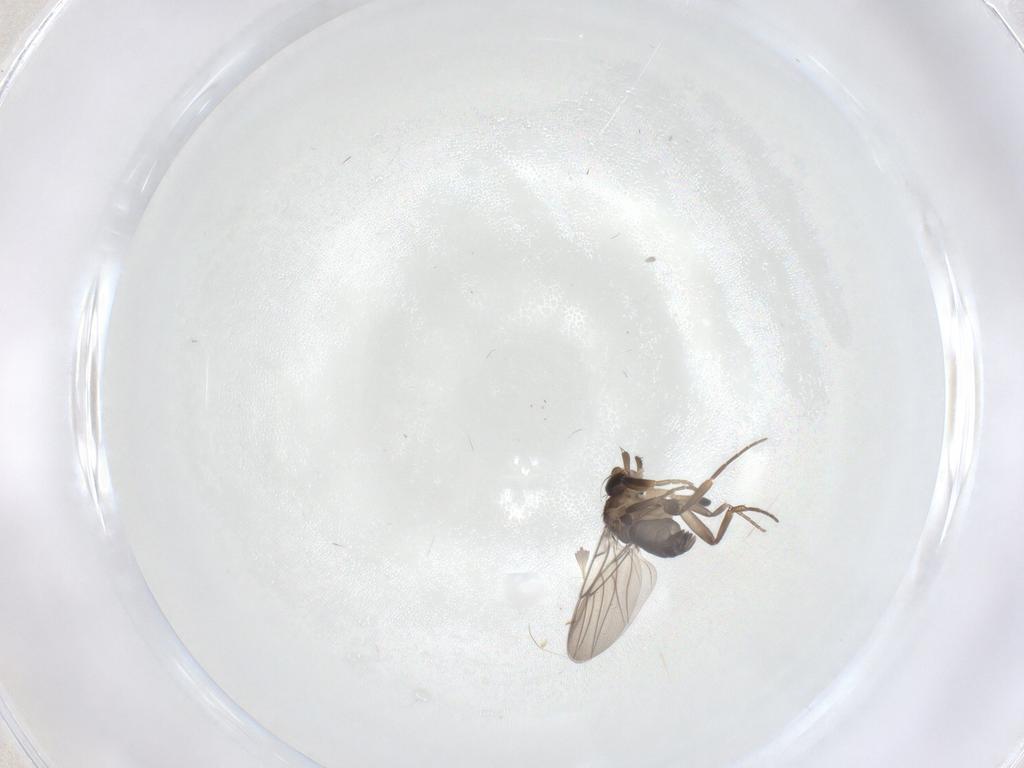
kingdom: Animalia
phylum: Arthropoda
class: Insecta
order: Diptera
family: Phoridae
